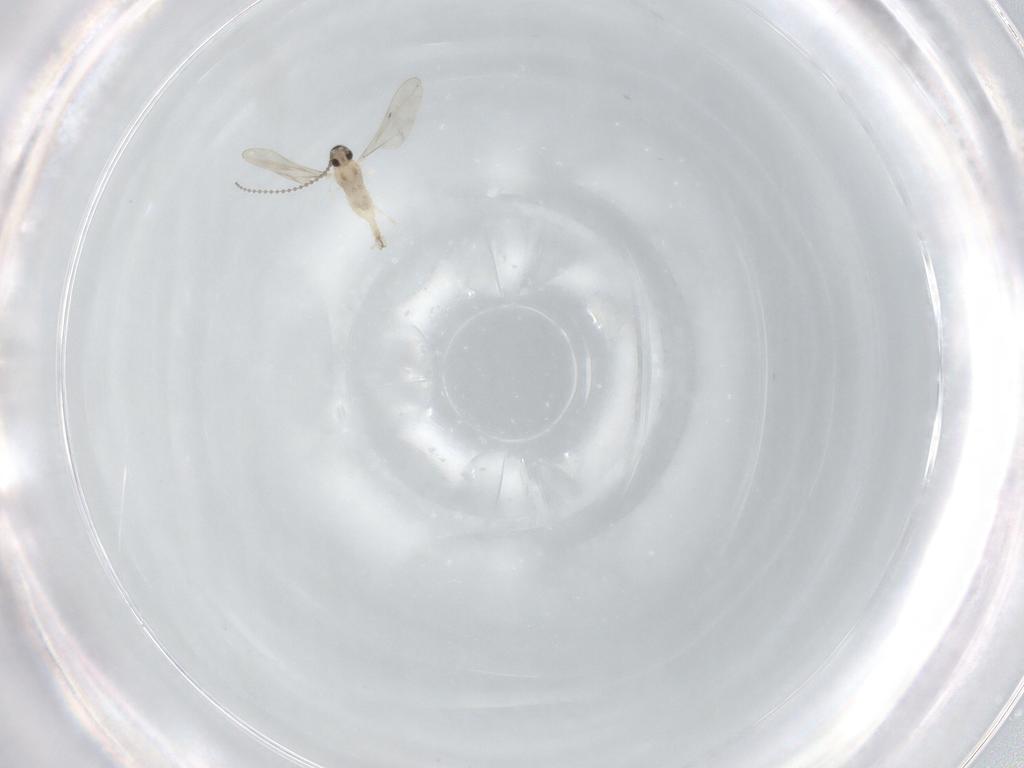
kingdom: Animalia
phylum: Arthropoda
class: Insecta
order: Diptera
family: Cecidomyiidae
